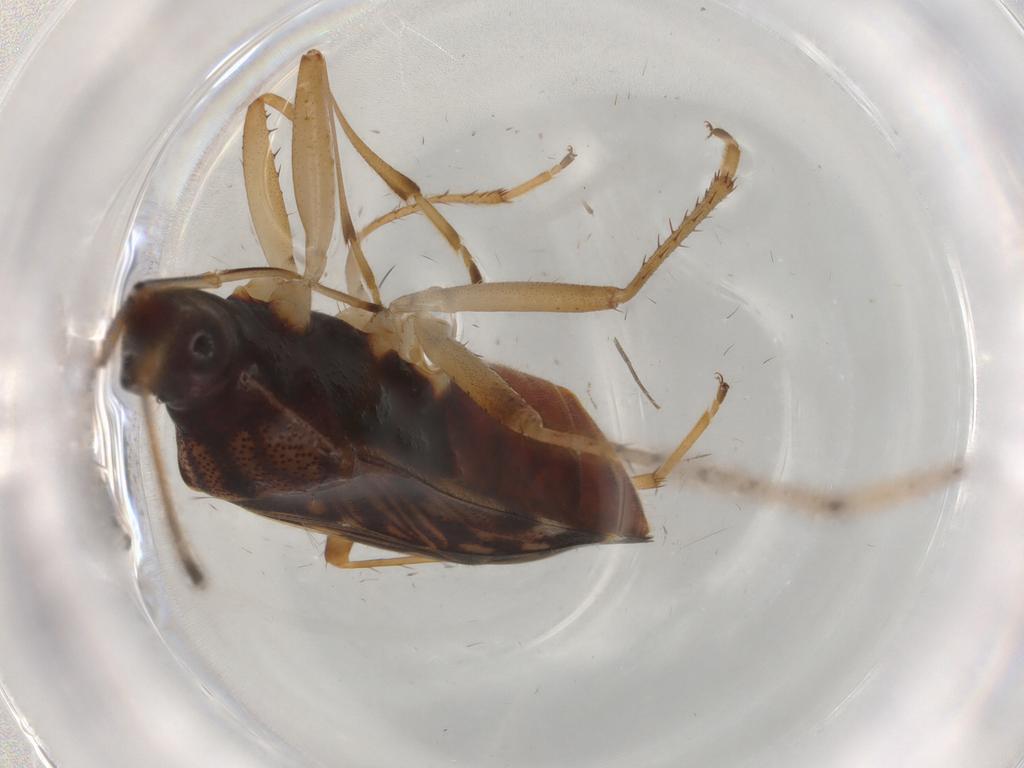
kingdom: Animalia
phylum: Arthropoda
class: Insecta
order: Hemiptera
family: Rhyparochromidae
